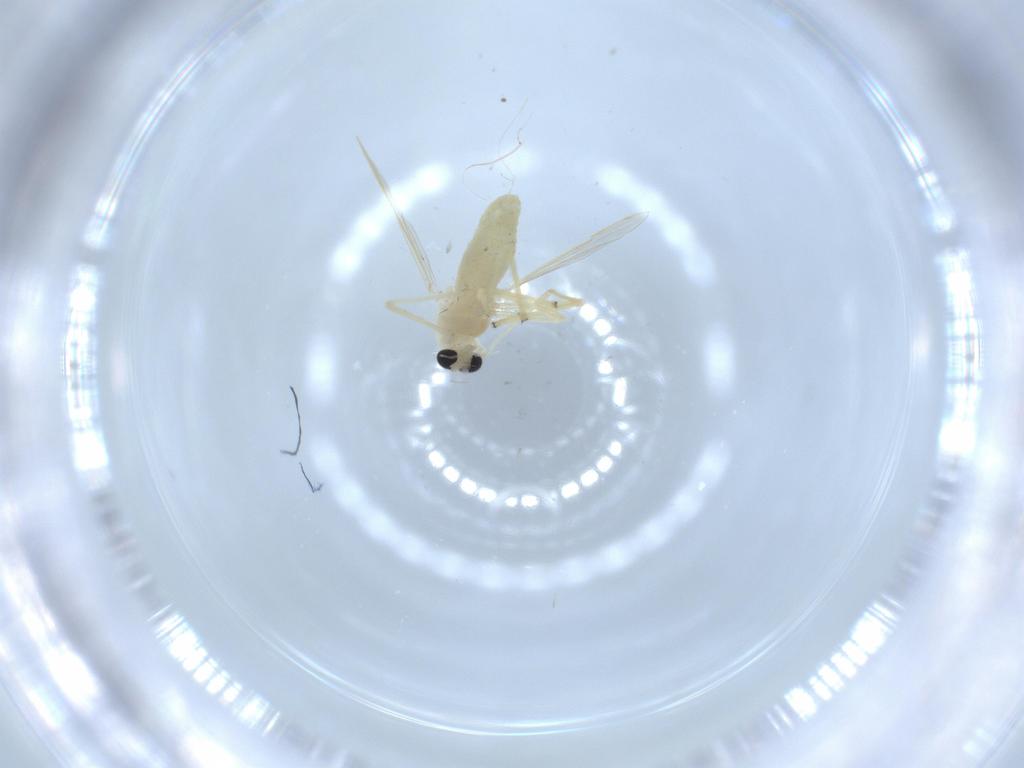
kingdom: Animalia
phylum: Arthropoda
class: Insecta
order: Diptera
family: Chironomidae
